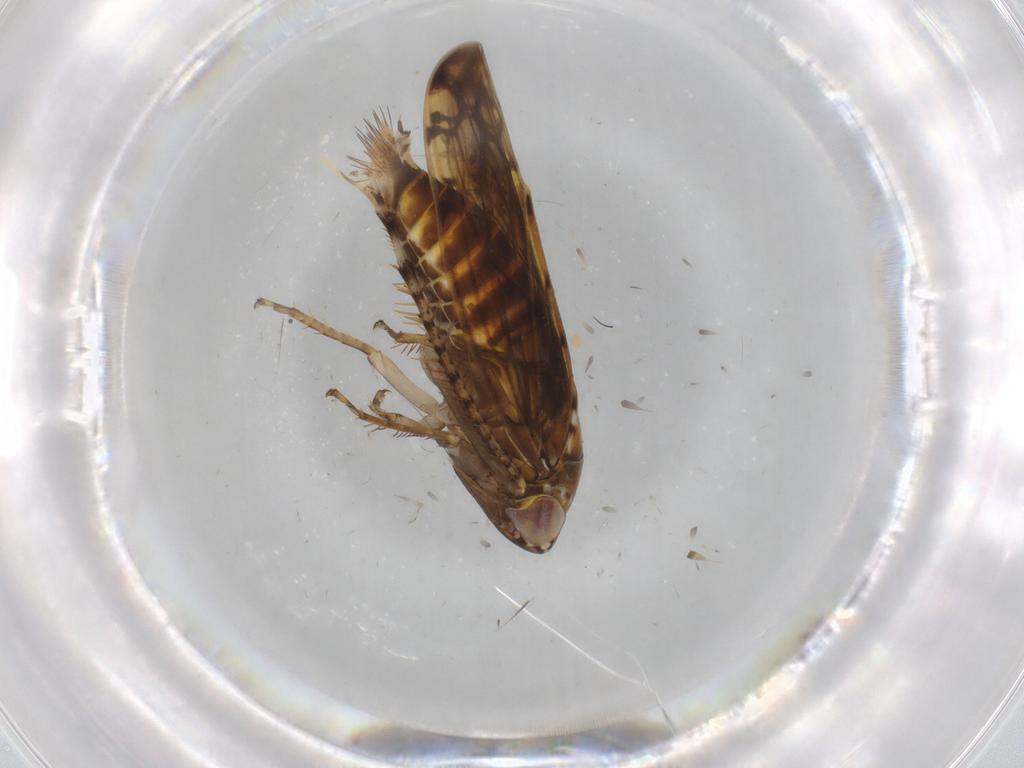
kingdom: Animalia
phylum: Arthropoda
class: Insecta
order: Hemiptera
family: Cicadellidae
